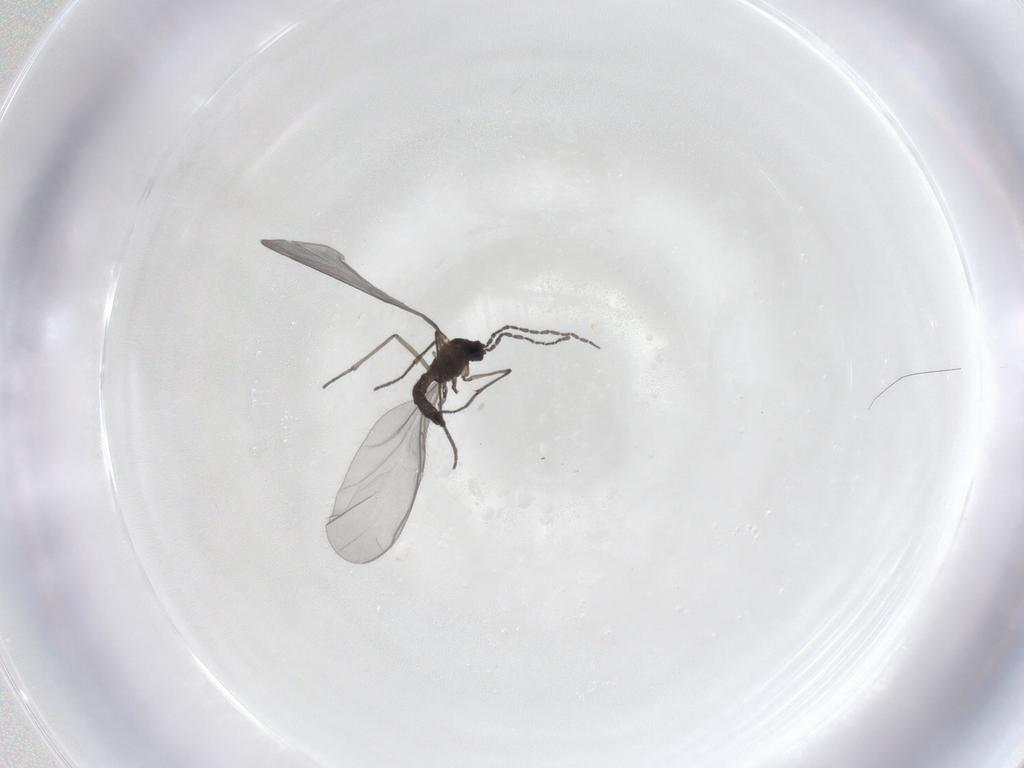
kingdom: Animalia
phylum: Arthropoda
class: Insecta
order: Diptera
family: Sciaridae
